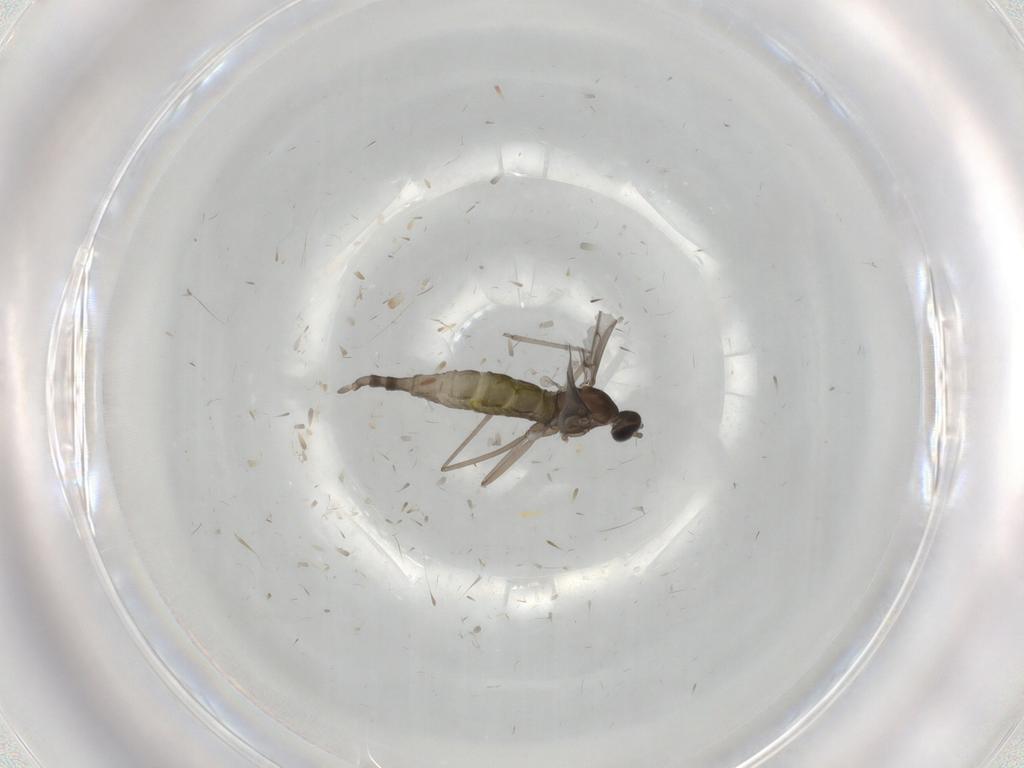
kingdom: Animalia
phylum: Arthropoda
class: Insecta
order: Diptera
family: Cecidomyiidae
